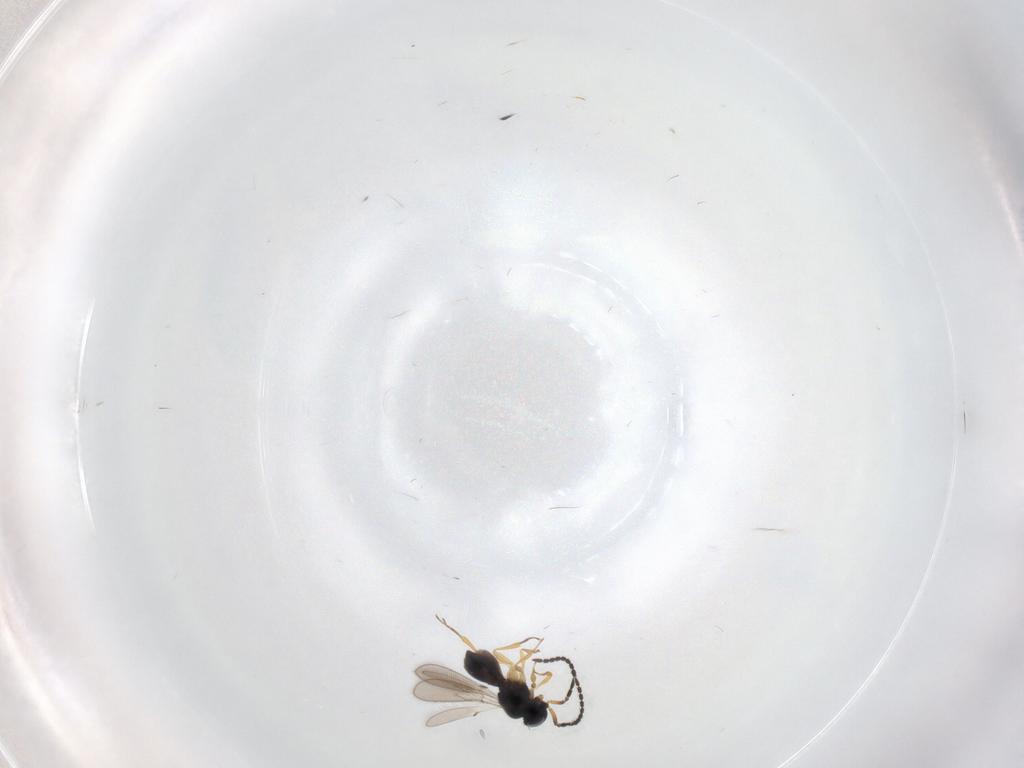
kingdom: Animalia
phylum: Arthropoda
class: Insecta
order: Hymenoptera
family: Scelionidae
